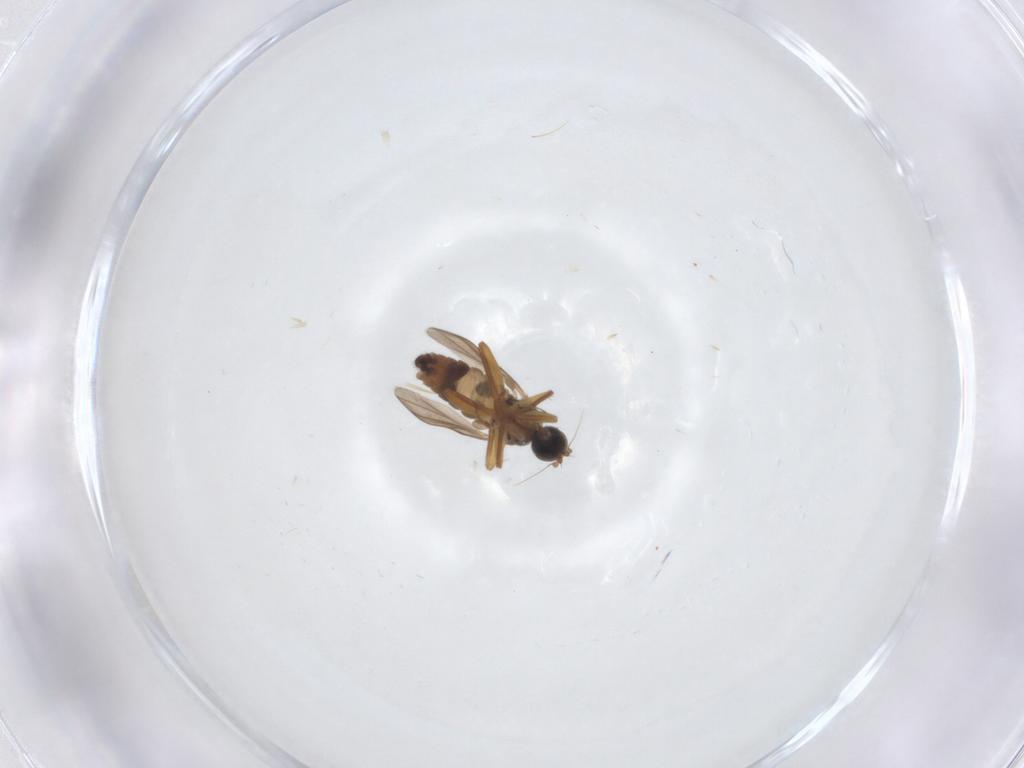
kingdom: Animalia
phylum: Arthropoda
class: Insecta
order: Diptera
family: Hybotidae
